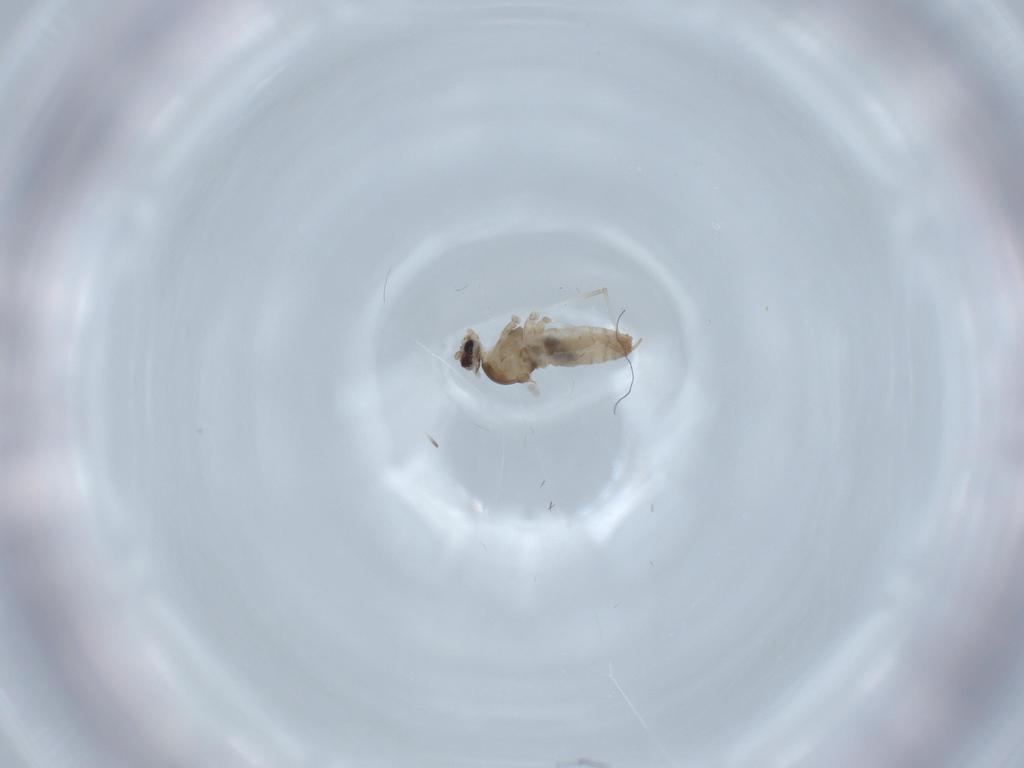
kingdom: Animalia
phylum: Arthropoda
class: Insecta
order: Diptera
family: Cecidomyiidae
